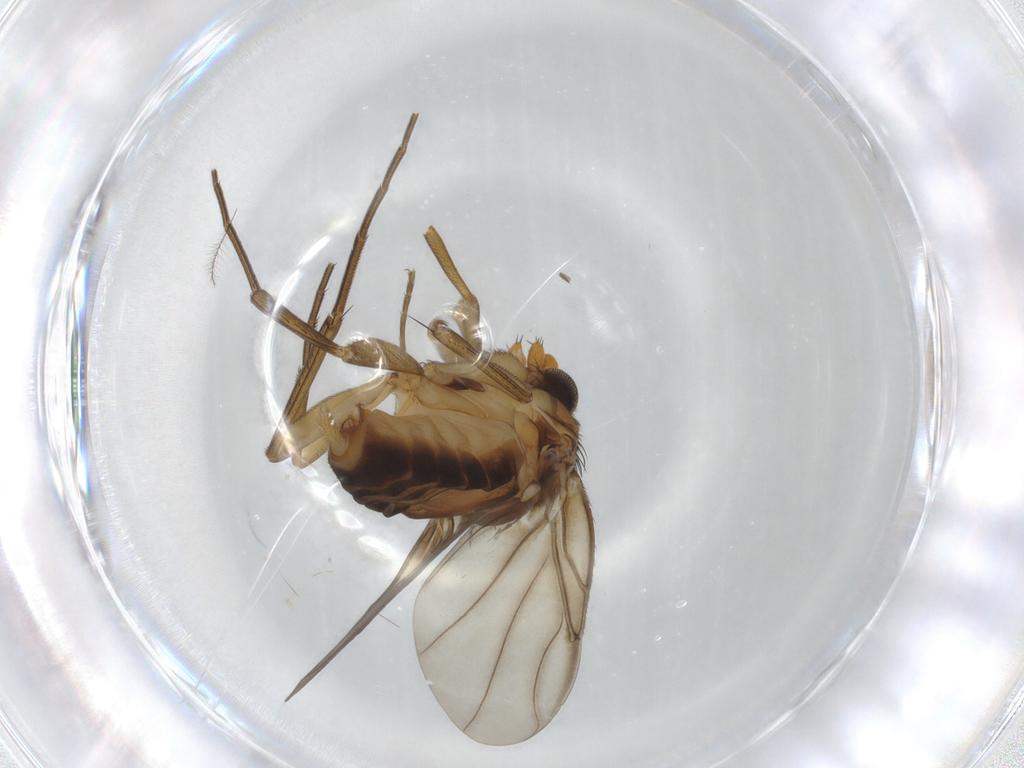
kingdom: Animalia
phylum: Arthropoda
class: Insecta
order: Diptera
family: Phoridae
